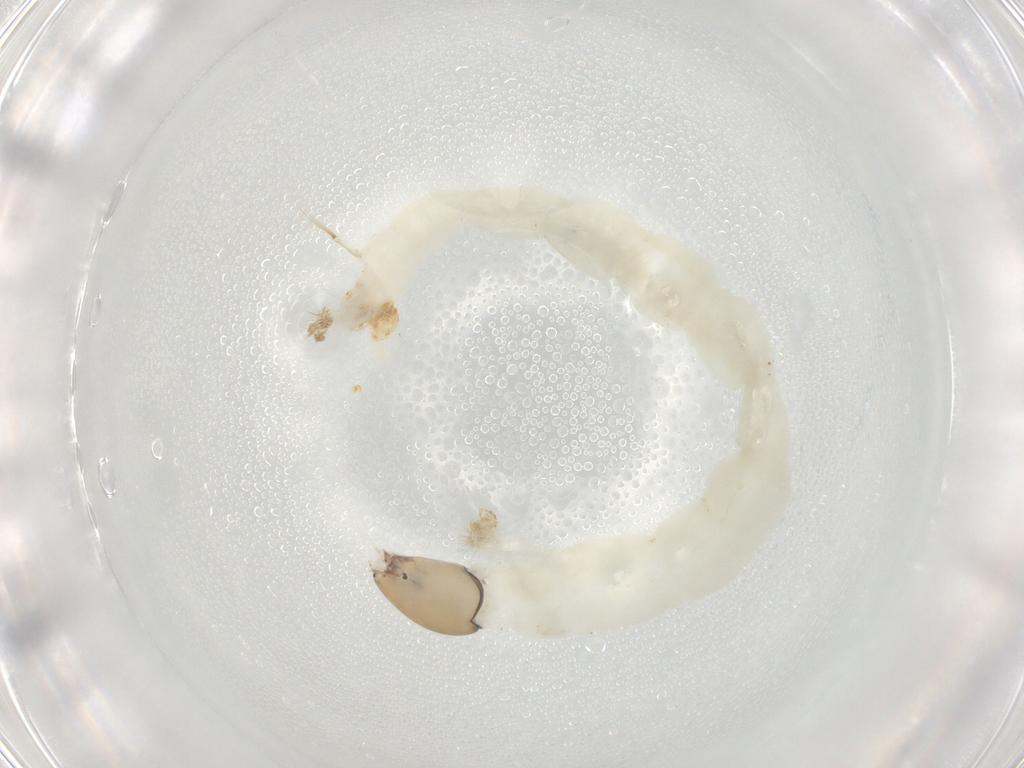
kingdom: Animalia
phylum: Arthropoda
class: Insecta
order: Diptera
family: Chironomidae
